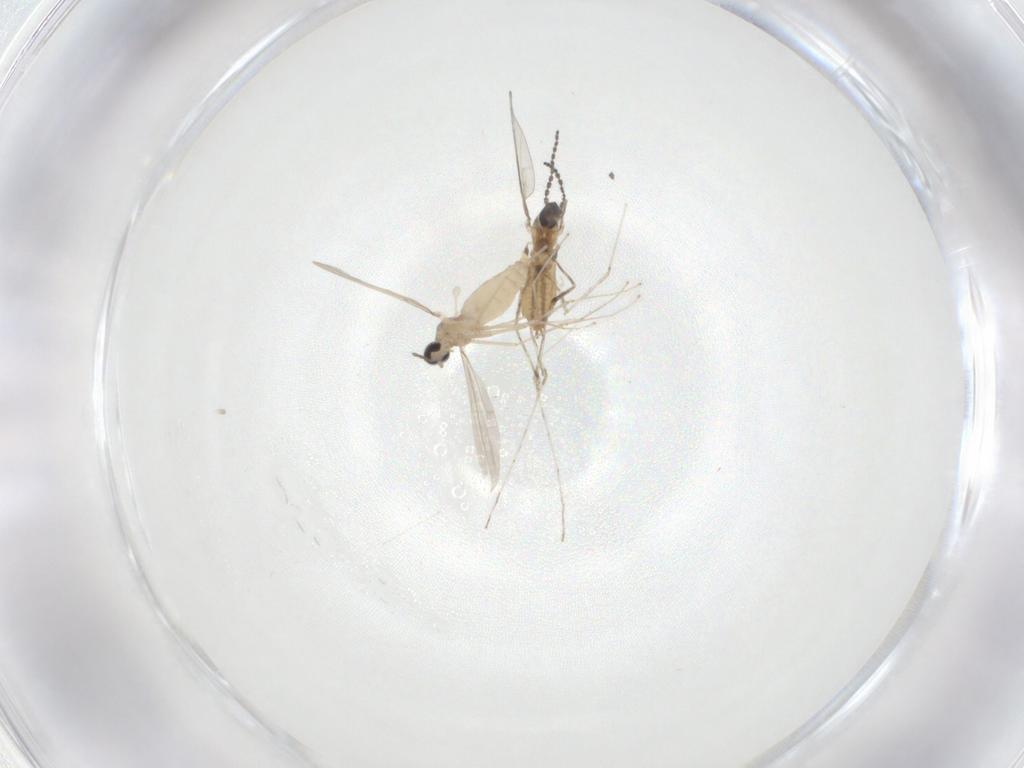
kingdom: Animalia
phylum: Arthropoda
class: Insecta
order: Diptera
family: Cecidomyiidae
